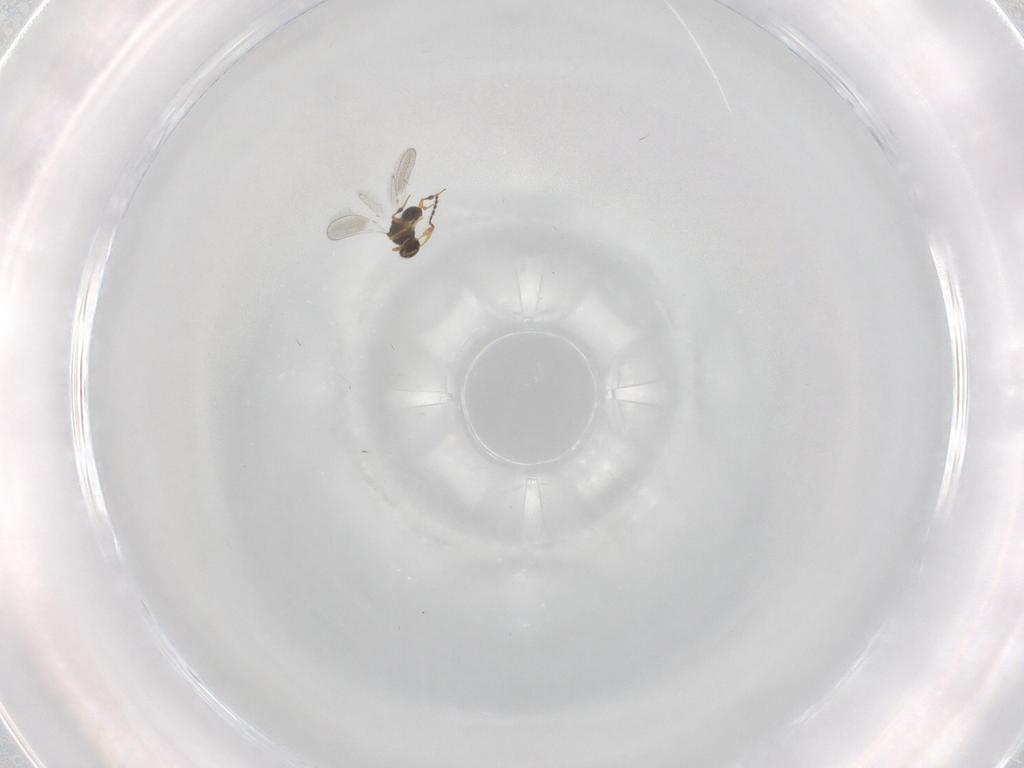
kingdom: Animalia
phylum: Arthropoda
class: Insecta
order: Hymenoptera
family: Platygastridae
